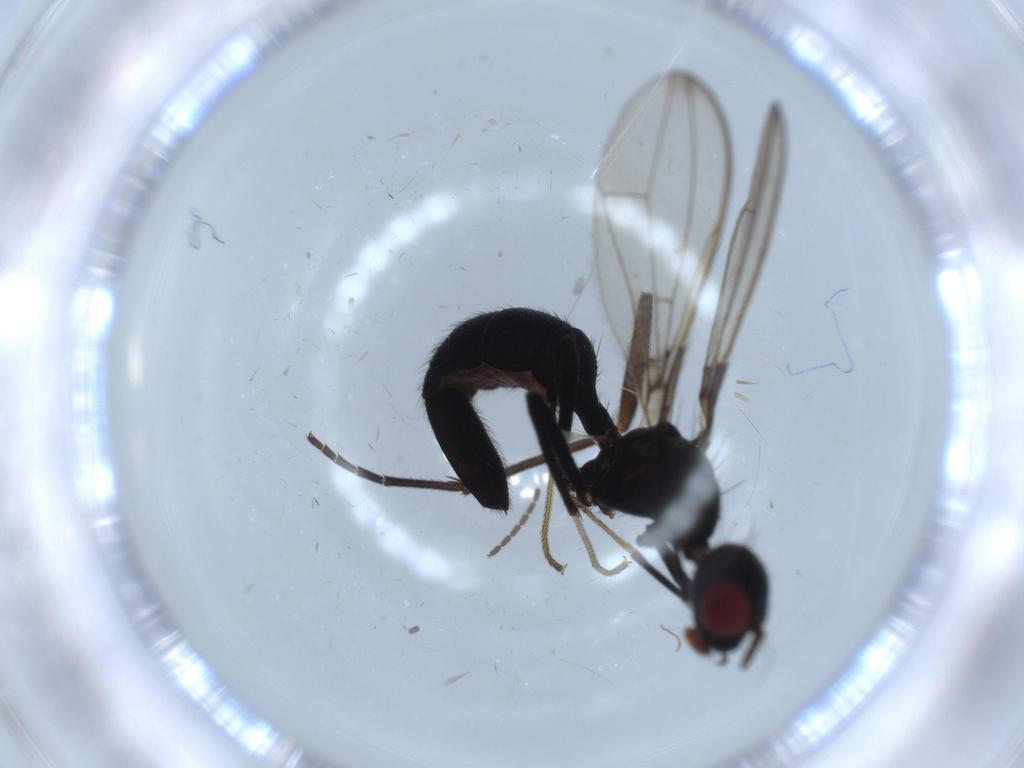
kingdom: Animalia
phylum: Arthropoda
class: Insecta
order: Diptera
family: Richardiidae
